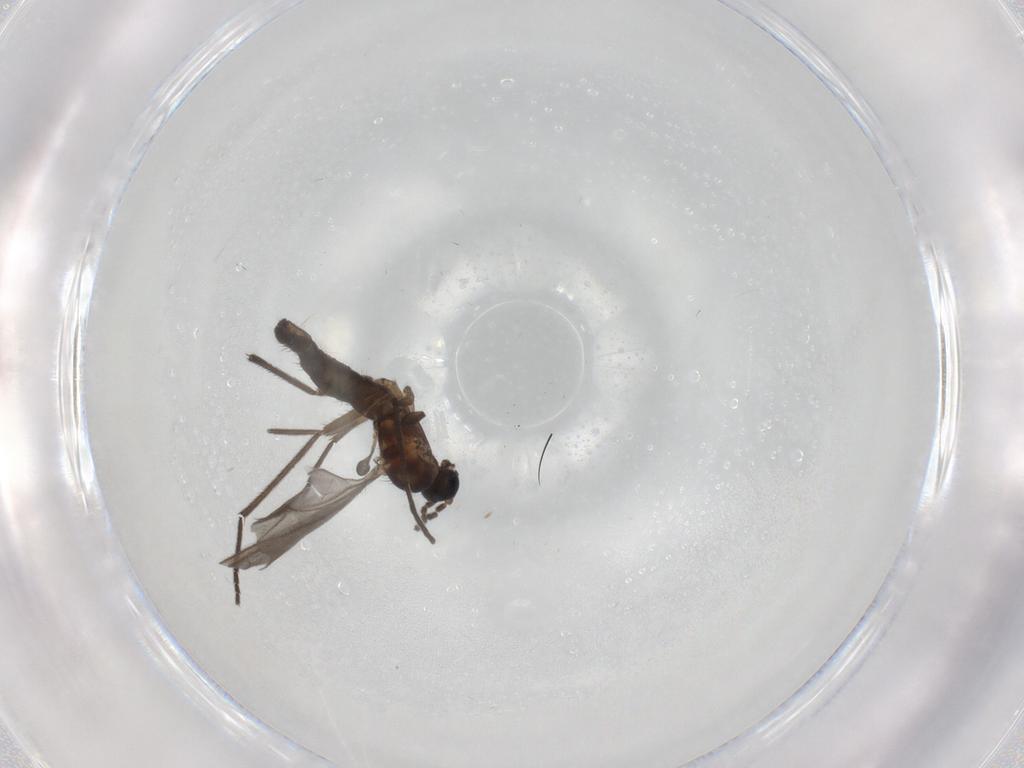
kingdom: Animalia
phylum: Arthropoda
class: Insecta
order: Diptera
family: Sciaridae
